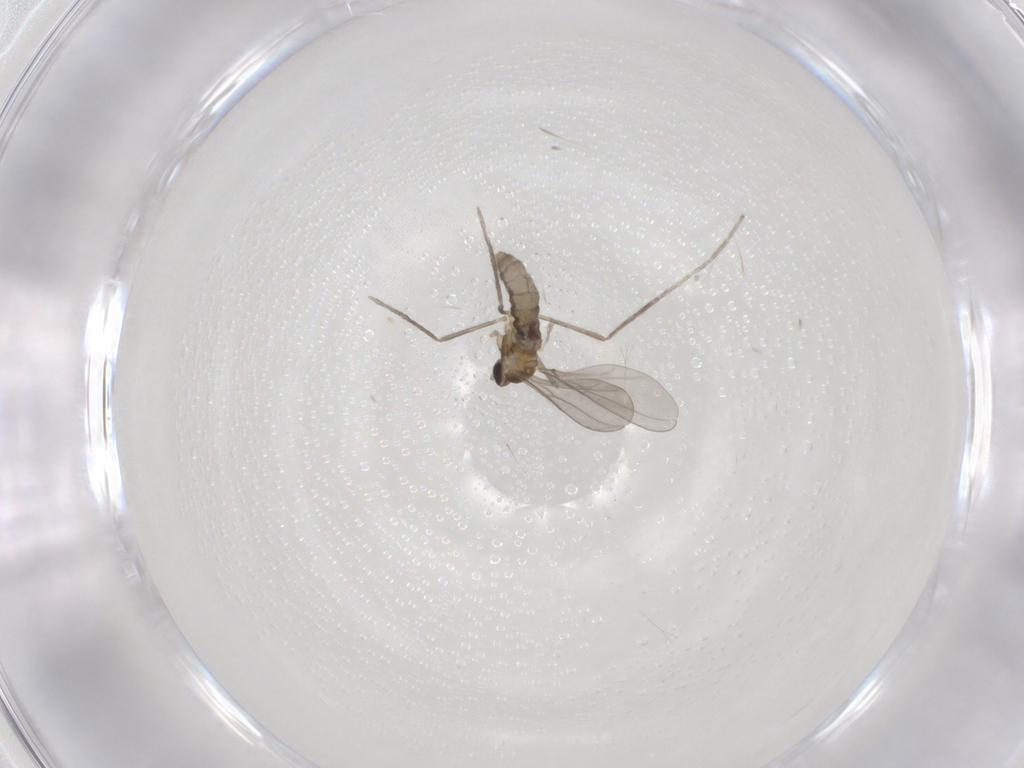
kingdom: Animalia
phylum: Arthropoda
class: Insecta
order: Diptera
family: Cecidomyiidae
